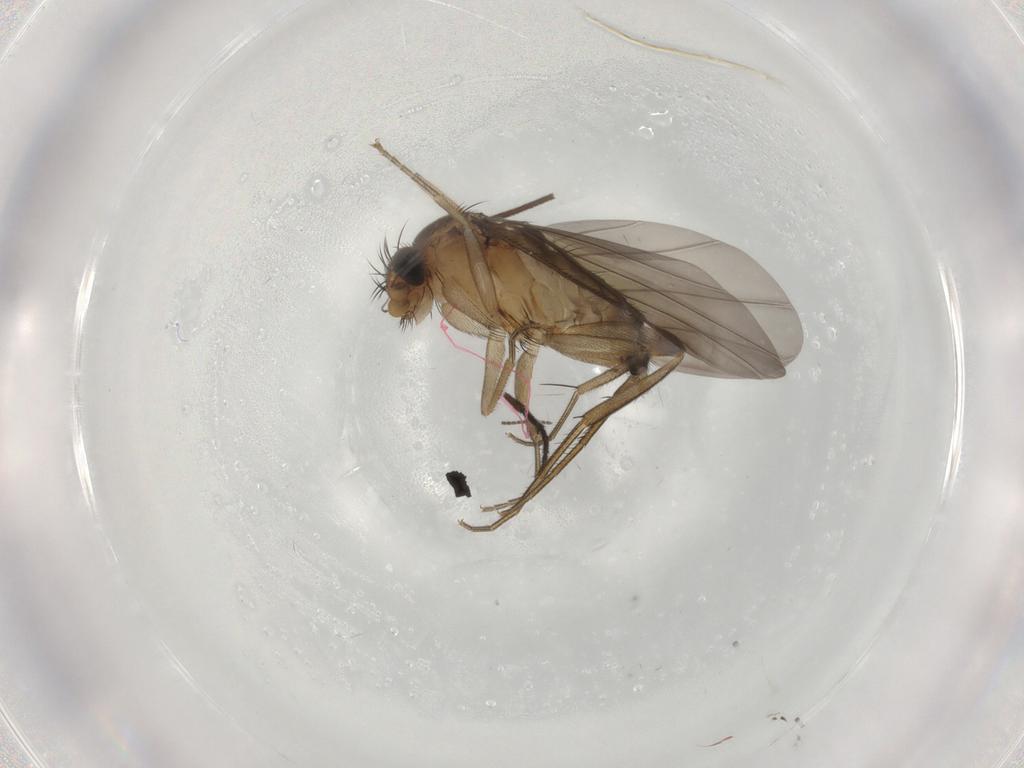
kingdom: Animalia
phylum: Arthropoda
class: Insecta
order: Diptera
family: Phoridae
